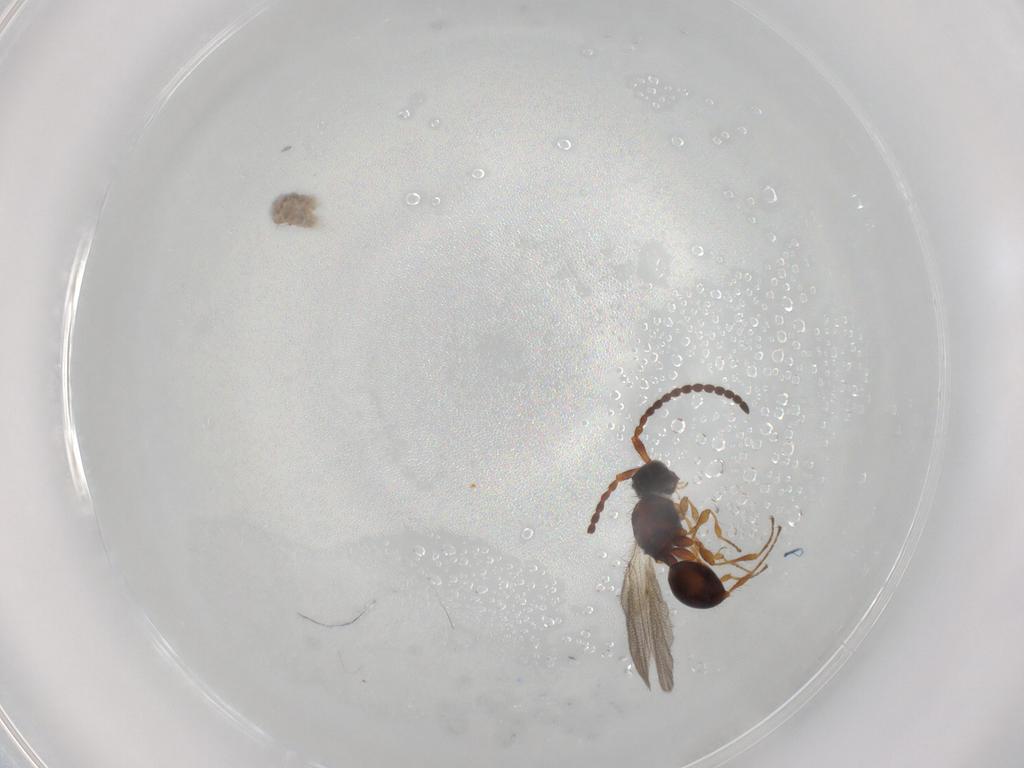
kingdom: Animalia
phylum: Arthropoda
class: Insecta
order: Hymenoptera
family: Diapriidae
